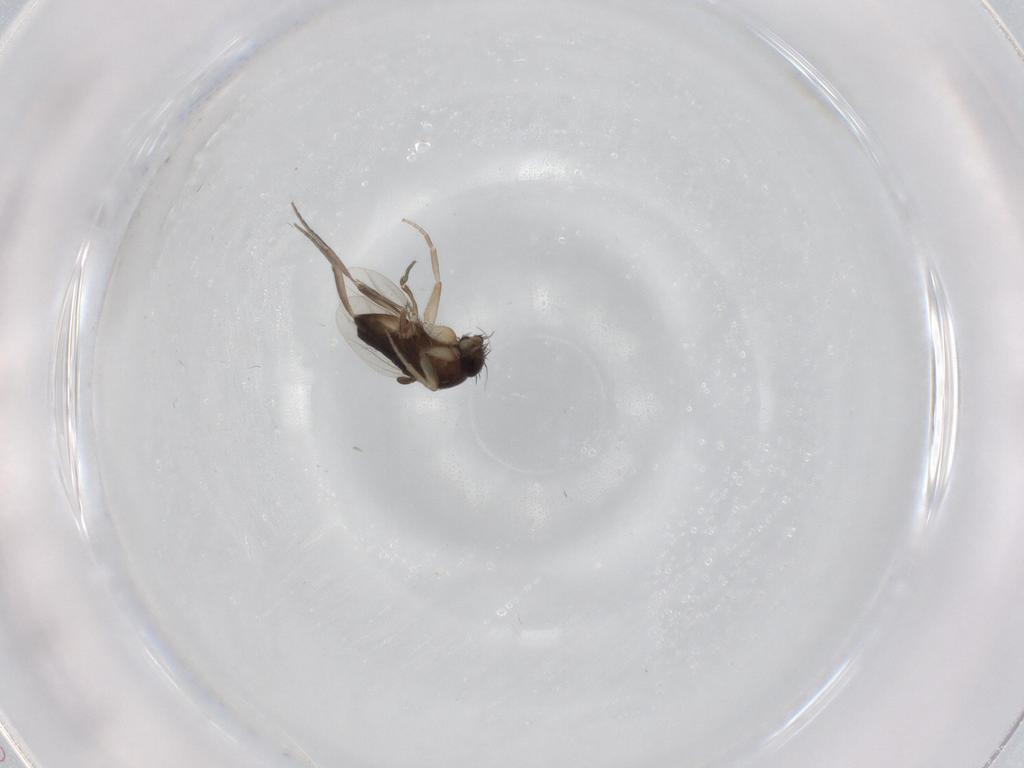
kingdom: Animalia
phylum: Arthropoda
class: Insecta
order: Diptera
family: Phoridae
